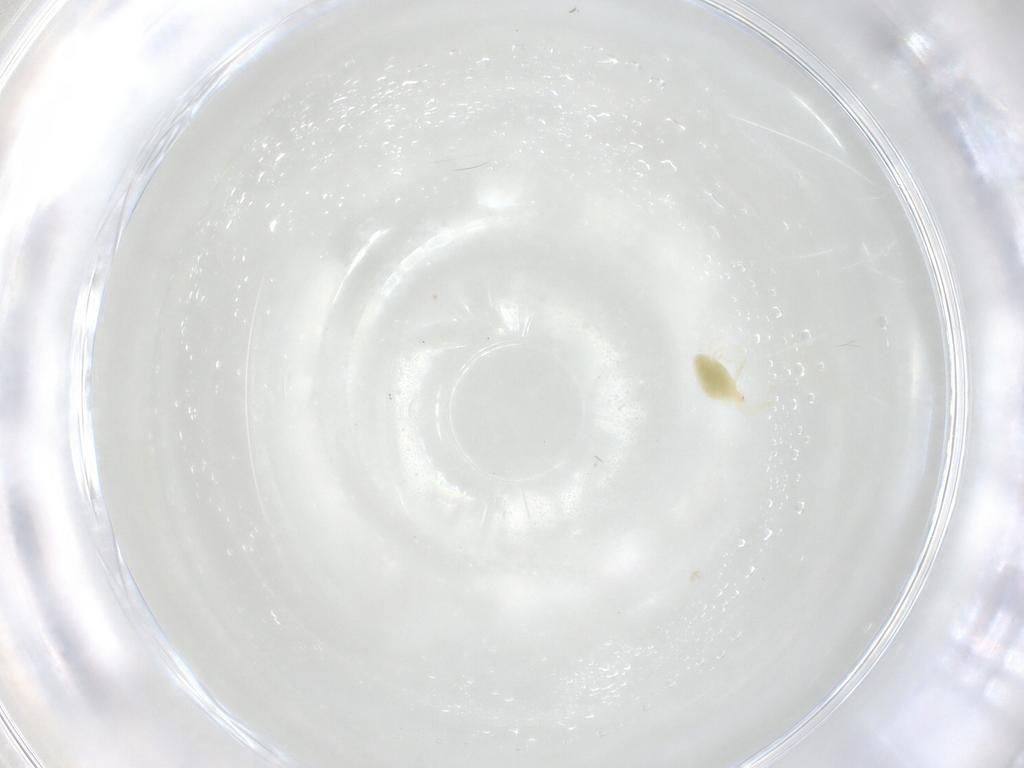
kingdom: Animalia
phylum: Arthropoda
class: Arachnida
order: Trombidiformes
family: Erythraeidae
